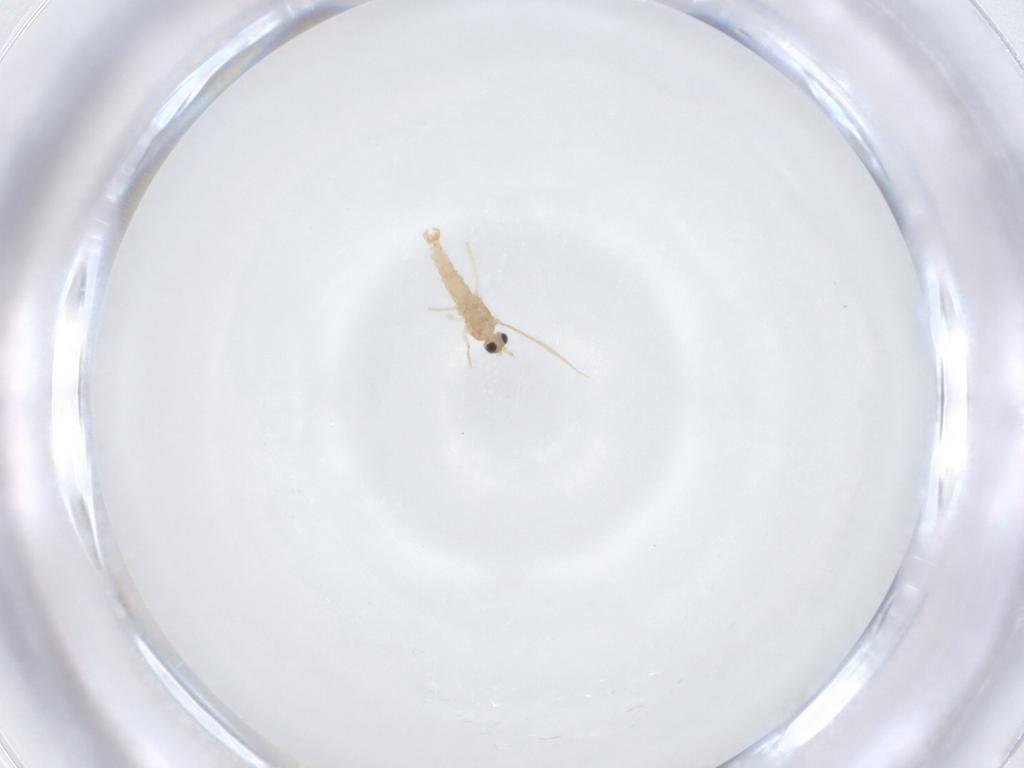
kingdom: Animalia
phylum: Arthropoda
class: Insecta
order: Diptera
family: Cecidomyiidae
